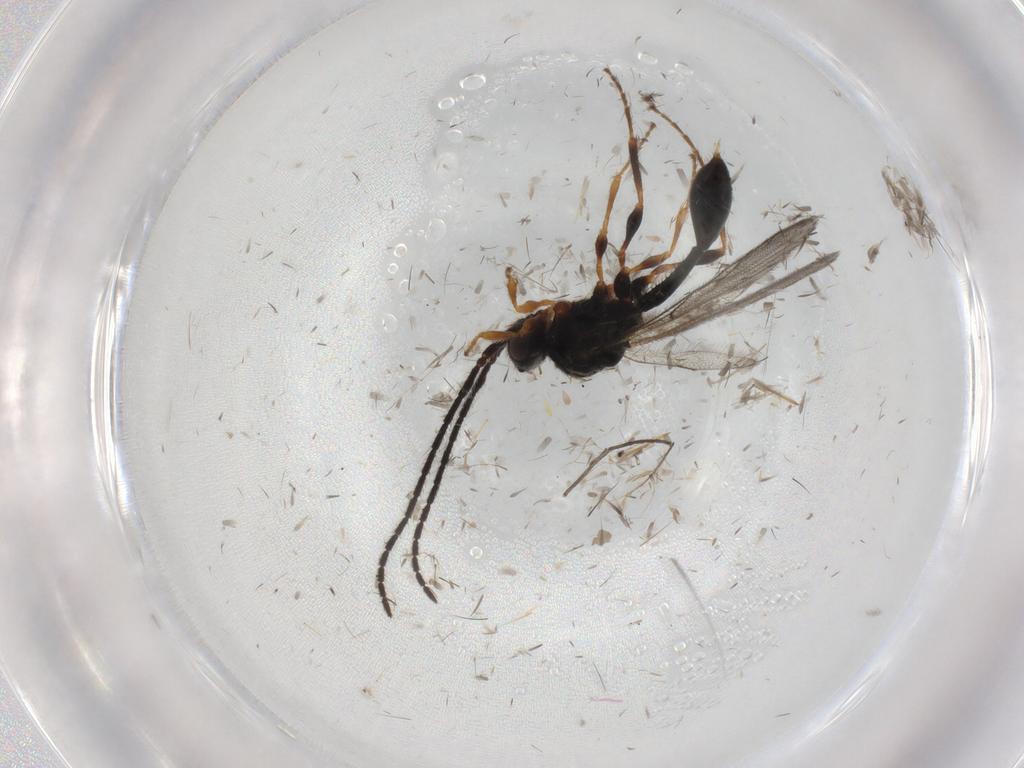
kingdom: Animalia
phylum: Arthropoda
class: Insecta
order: Hymenoptera
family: Diapriidae
